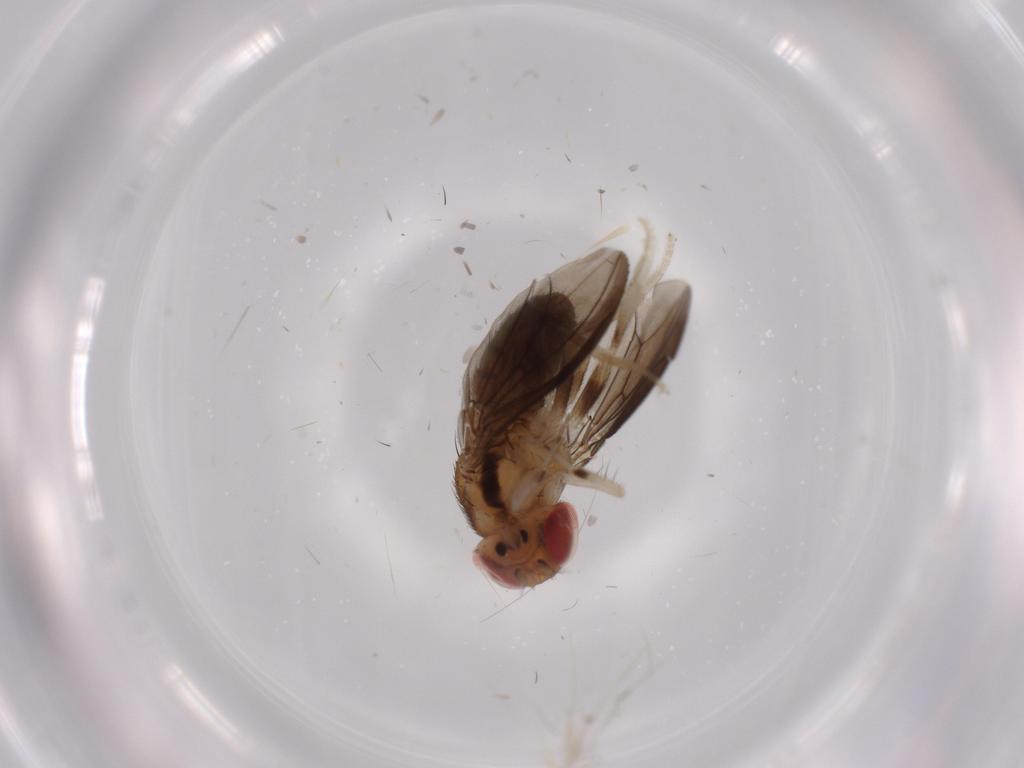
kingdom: Animalia
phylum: Arthropoda
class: Insecta
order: Diptera
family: Drosophilidae
